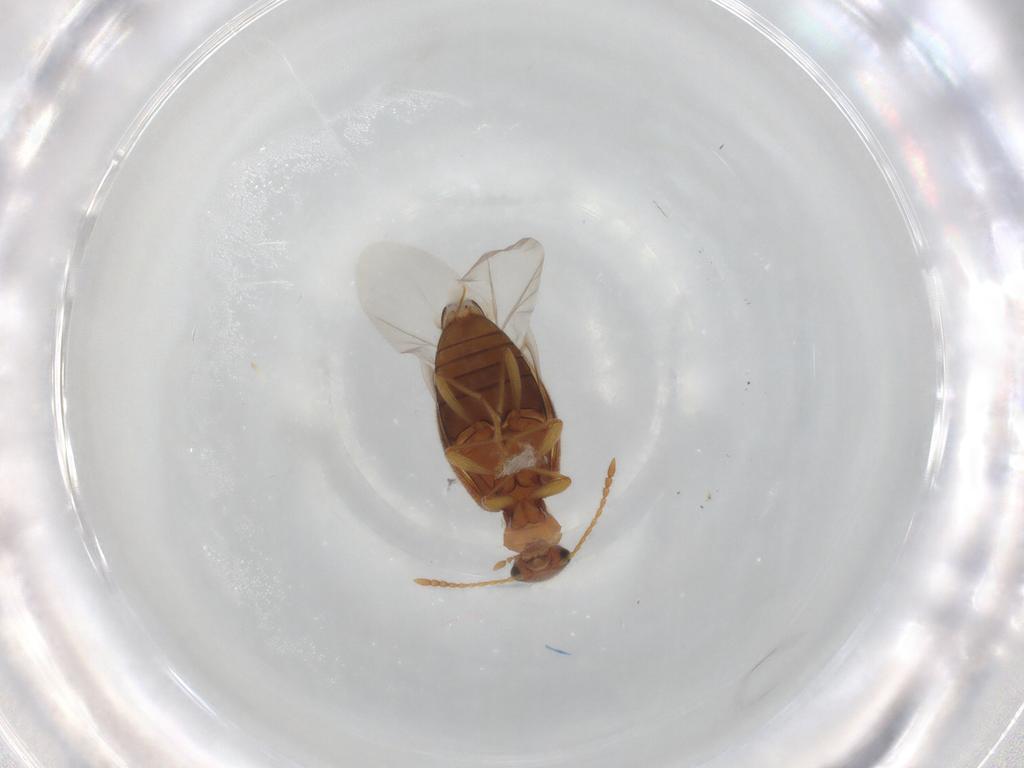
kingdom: Animalia
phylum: Arthropoda
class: Insecta
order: Coleoptera
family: Anthicidae
